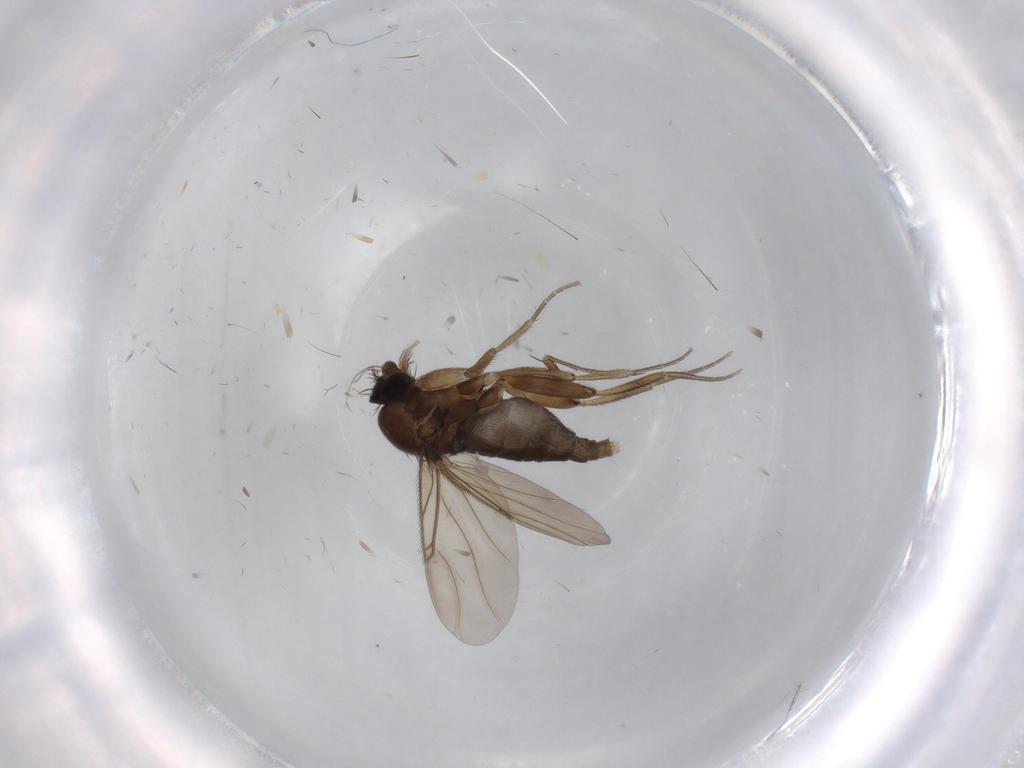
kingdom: Animalia
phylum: Arthropoda
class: Insecta
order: Diptera
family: Phoridae
